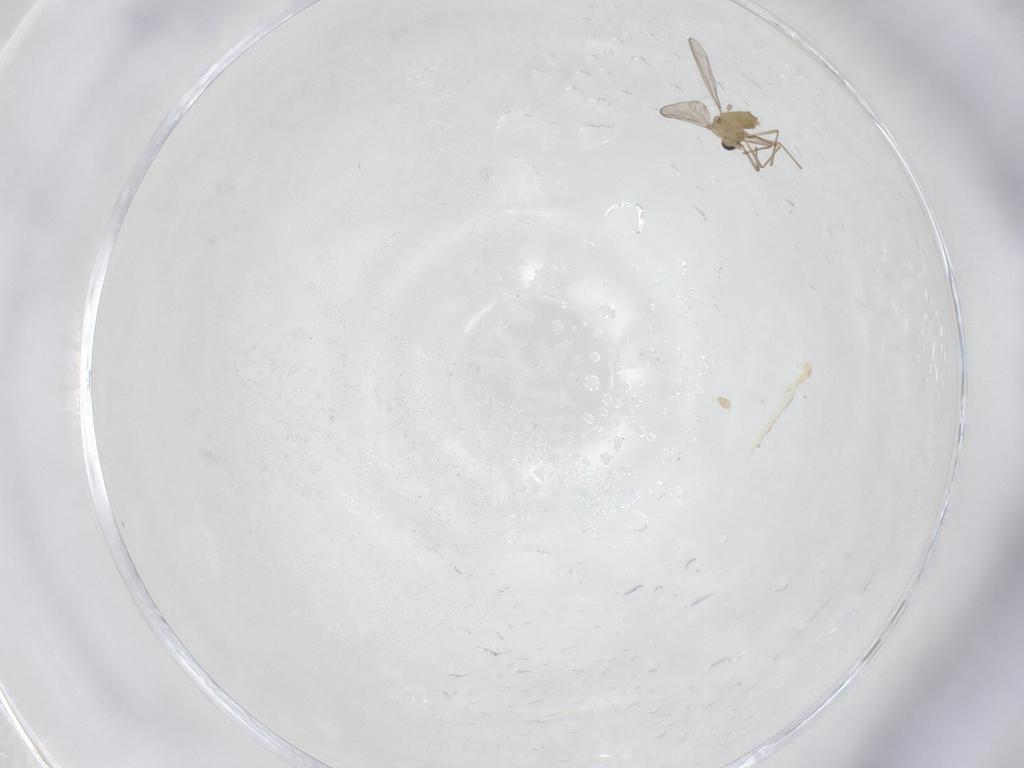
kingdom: Animalia
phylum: Arthropoda
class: Insecta
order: Diptera
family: Chironomidae
